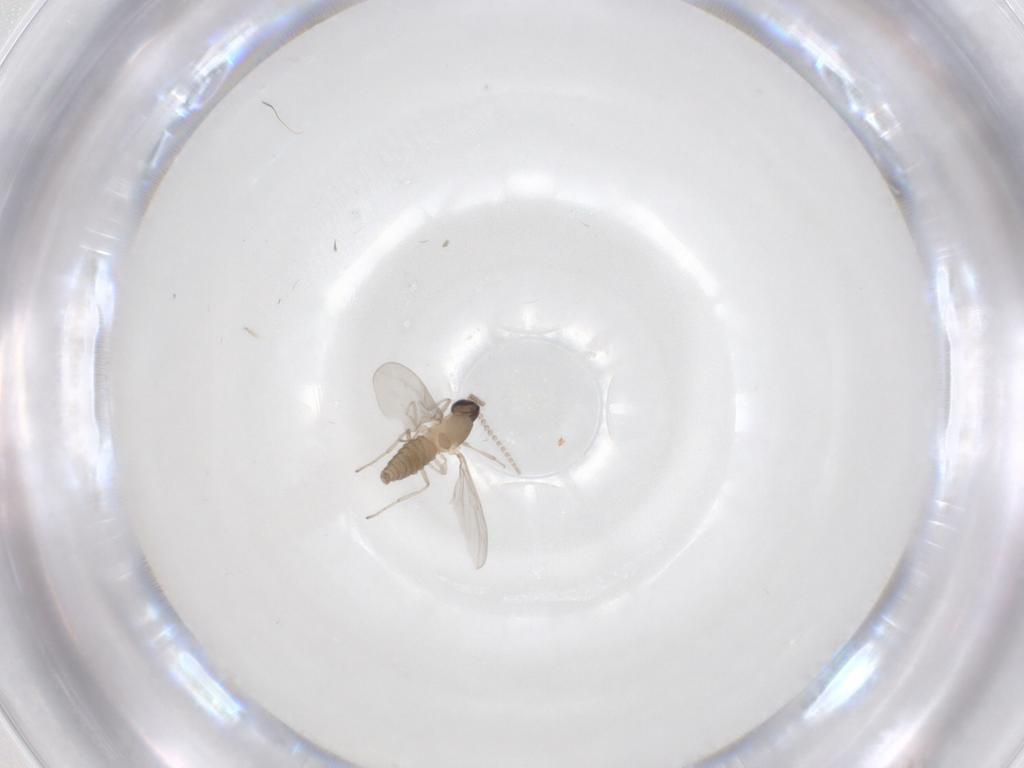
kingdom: Animalia
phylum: Arthropoda
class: Insecta
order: Diptera
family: Cecidomyiidae
